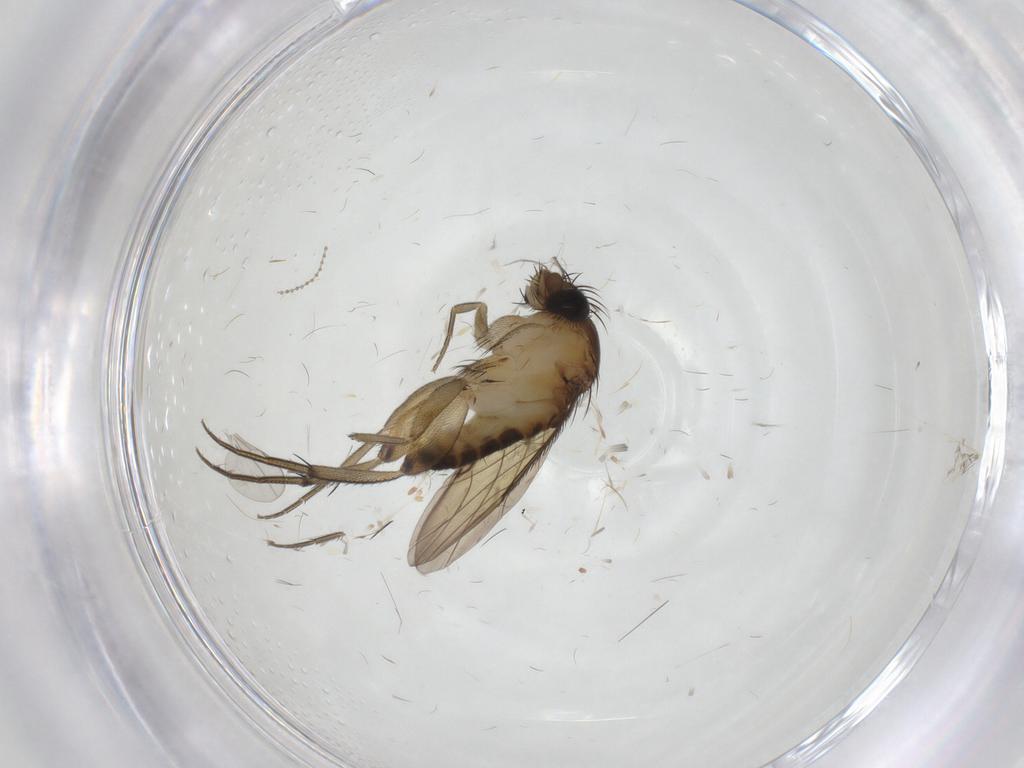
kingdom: Animalia
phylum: Arthropoda
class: Insecta
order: Diptera
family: Phoridae
